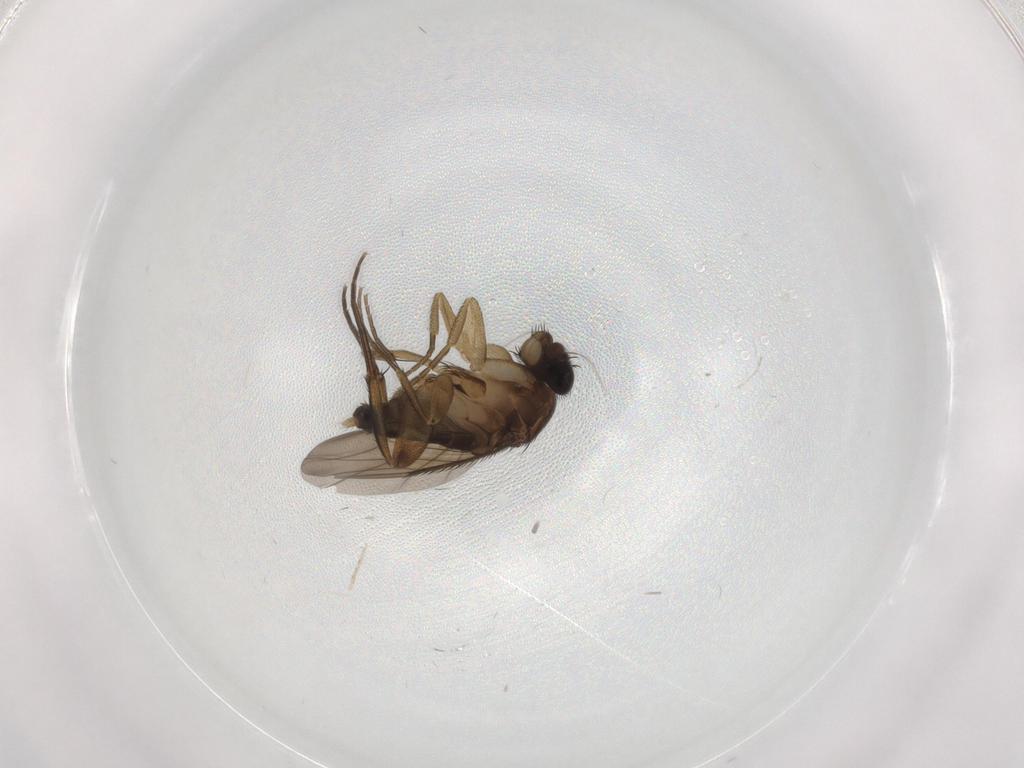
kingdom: Animalia
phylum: Arthropoda
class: Insecta
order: Diptera
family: Phoridae
